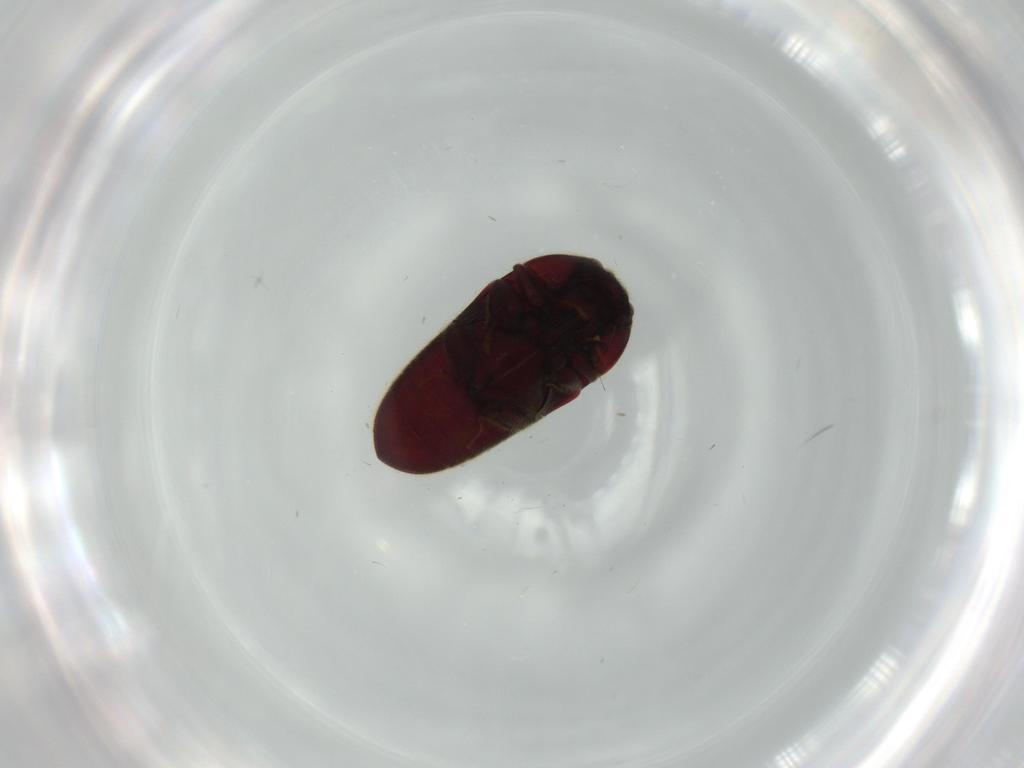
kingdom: Animalia
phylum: Arthropoda
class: Insecta
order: Coleoptera
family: Throscidae
